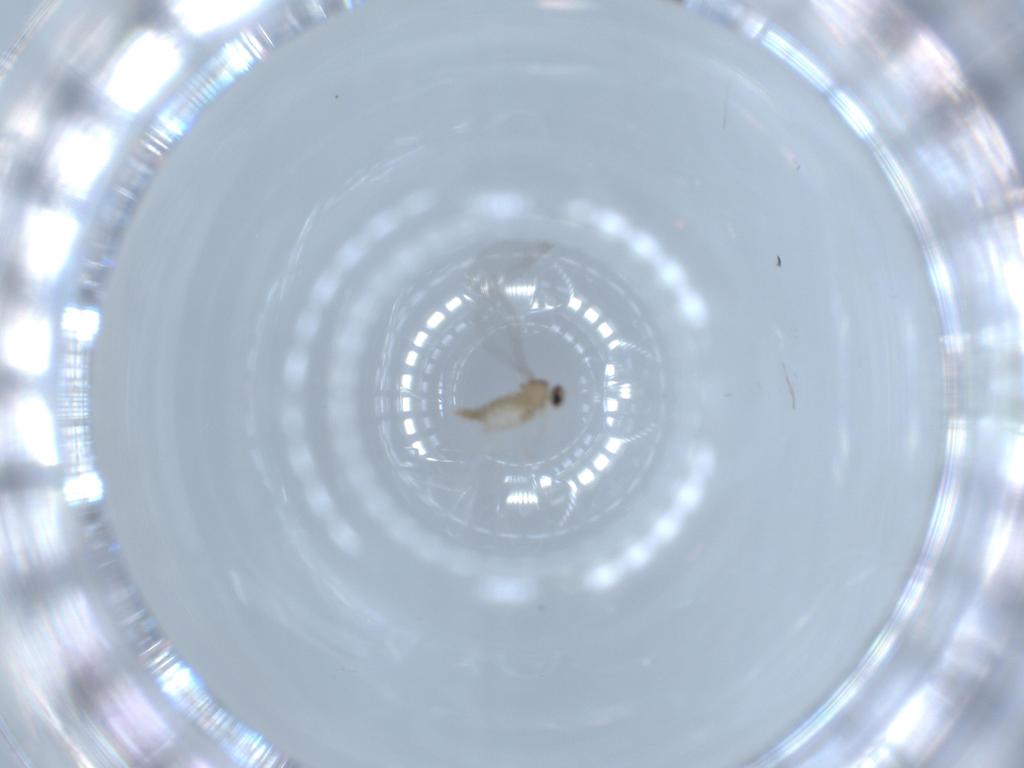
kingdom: Animalia
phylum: Arthropoda
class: Insecta
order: Diptera
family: Cecidomyiidae
